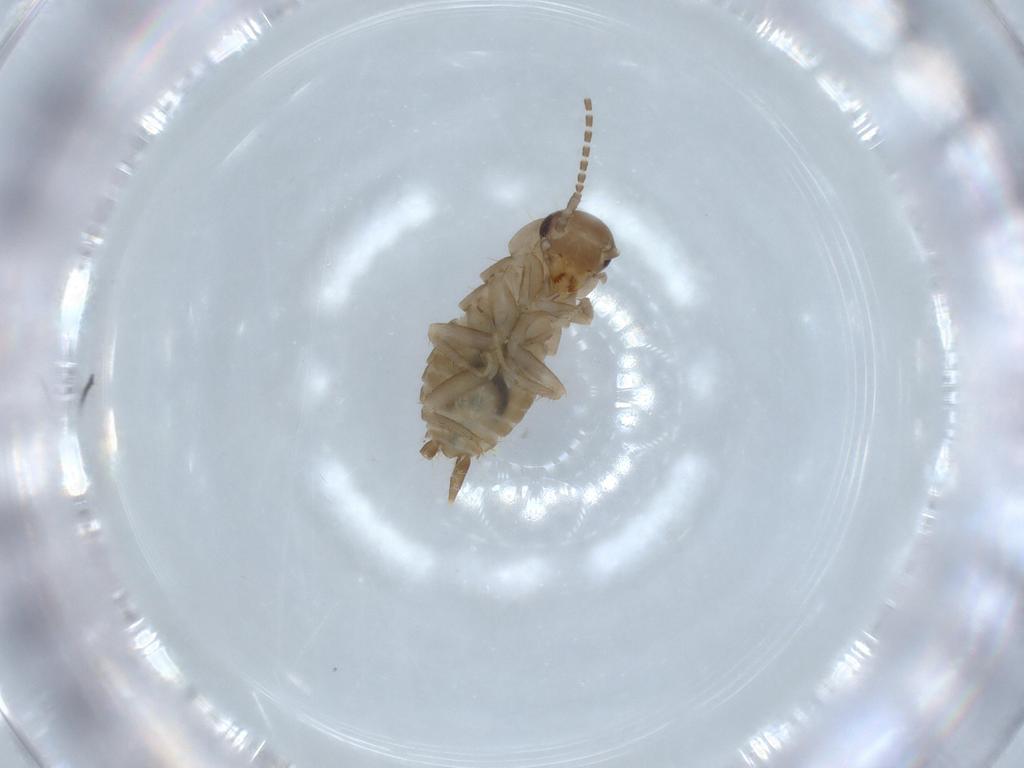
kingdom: Animalia
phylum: Arthropoda
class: Insecta
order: Blattodea
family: Ectobiidae
